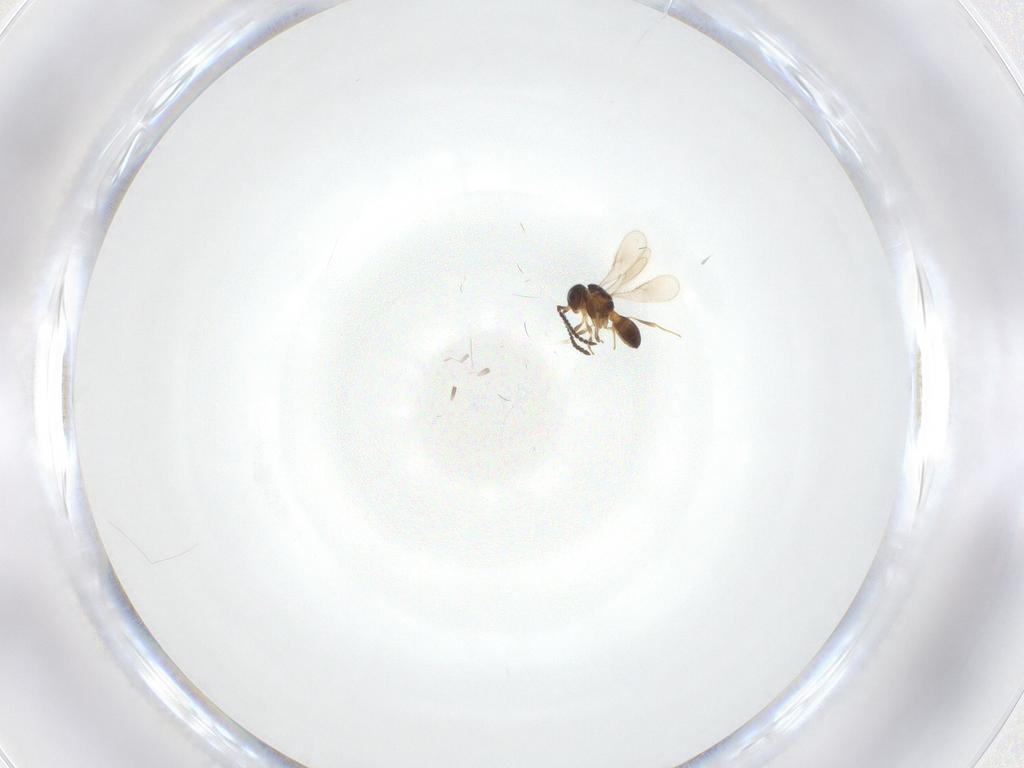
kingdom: Animalia
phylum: Arthropoda
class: Insecta
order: Hymenoptera
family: Scelionidae
